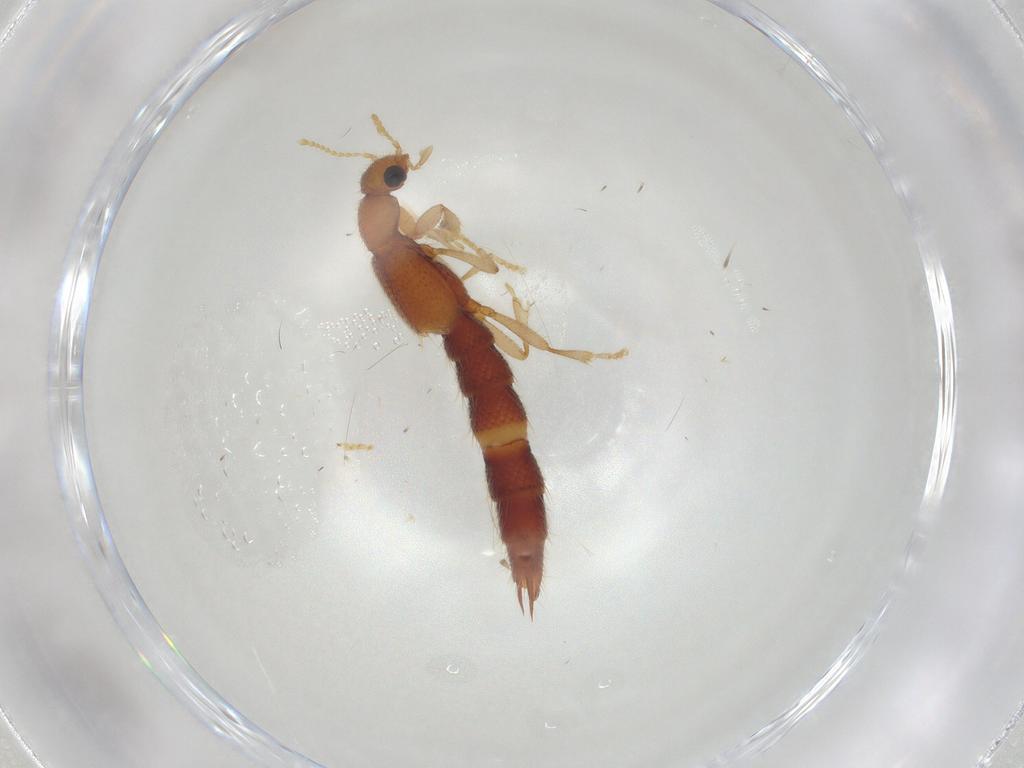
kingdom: Animalia
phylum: Arthropoda
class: Insecta
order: Coleoptera
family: Staphylinidae
